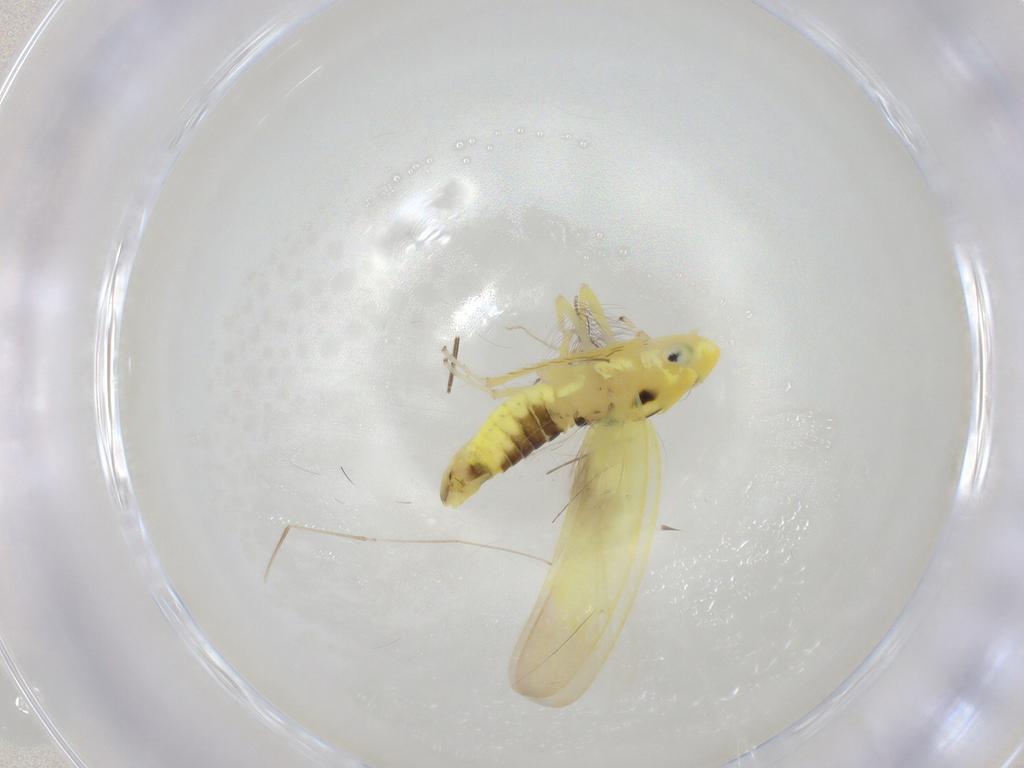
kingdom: Animalia
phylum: Arthropoda
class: Insecta
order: Hemiptera
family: Cicadellidae
